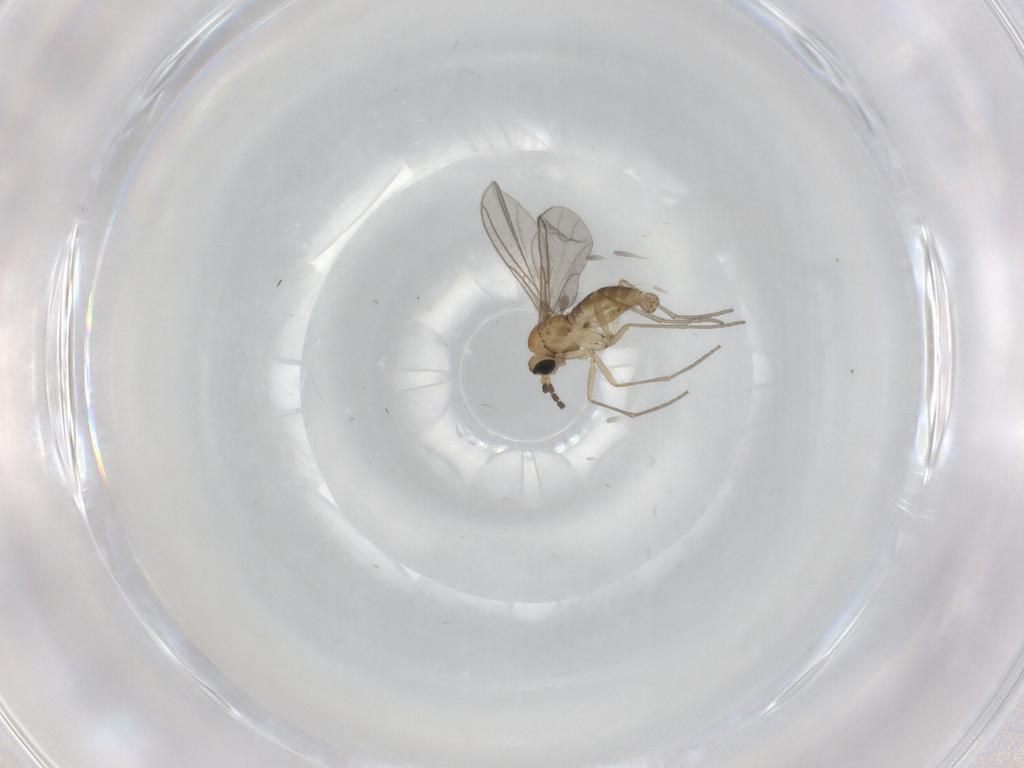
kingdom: Animalia
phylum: Arthropoda
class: Insecta
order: Diptera
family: Sciaridae
